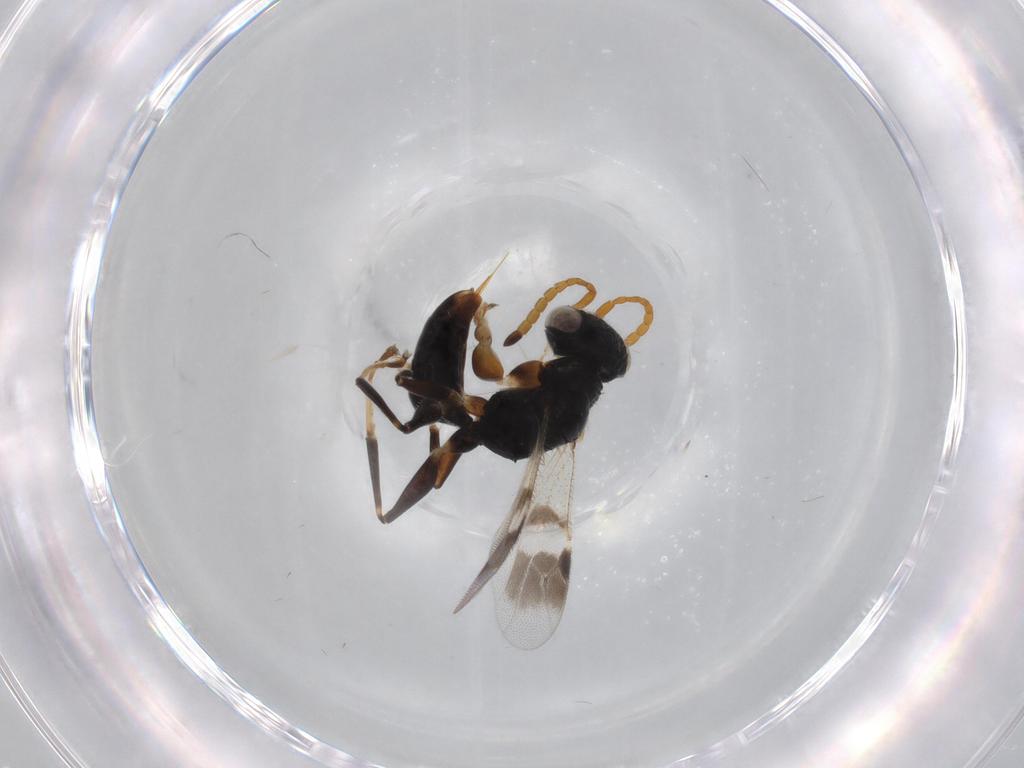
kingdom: Animalia
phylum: Arthropoda
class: Insecta
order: Hymenoptera
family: Dryinidae
